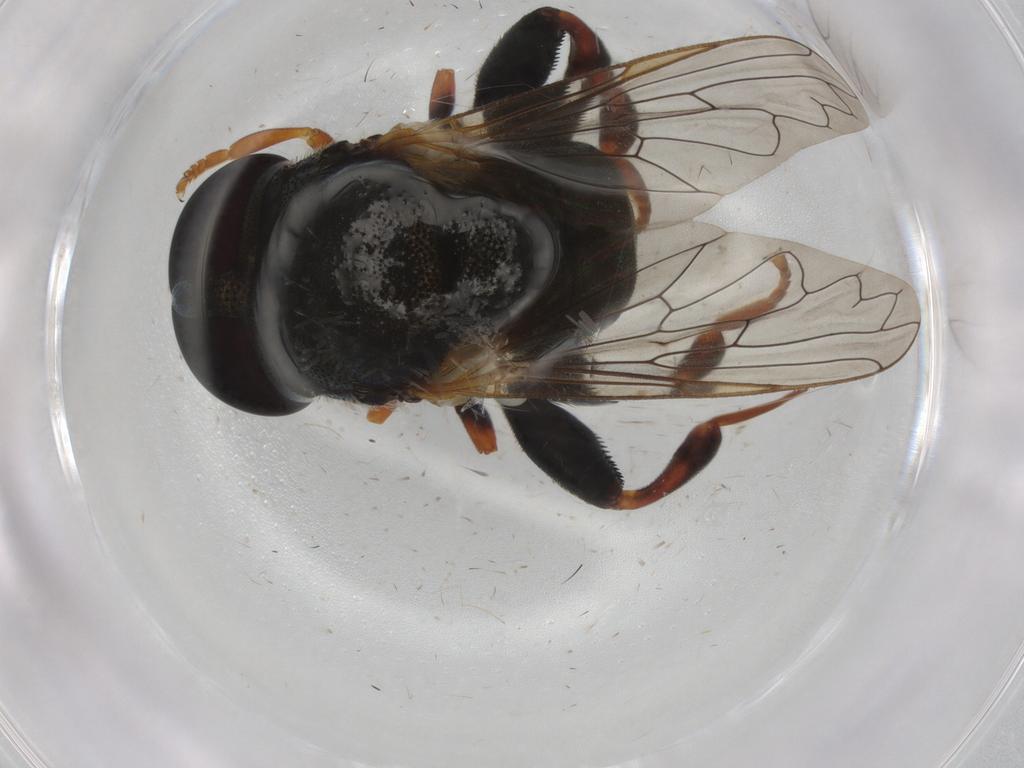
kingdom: Animalia
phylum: Arthropoda
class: Insecta
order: Diptera
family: Syrphidae
